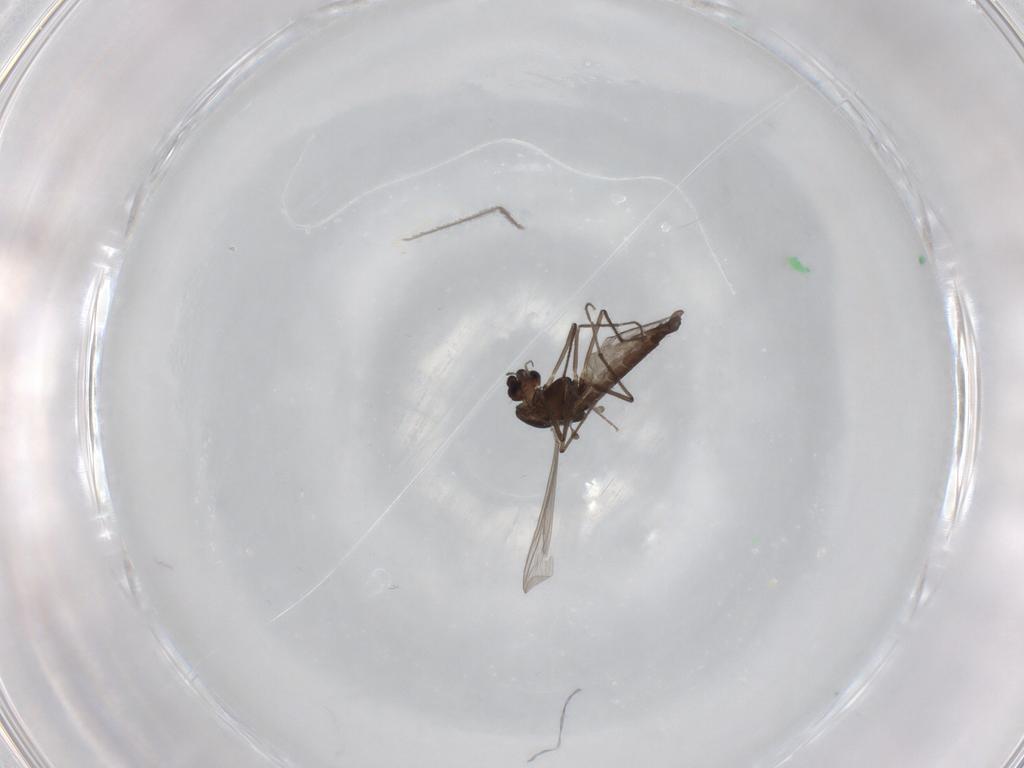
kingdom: Animalia
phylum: Arthropoda
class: Insecta
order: Diptera
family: Chironomidae
